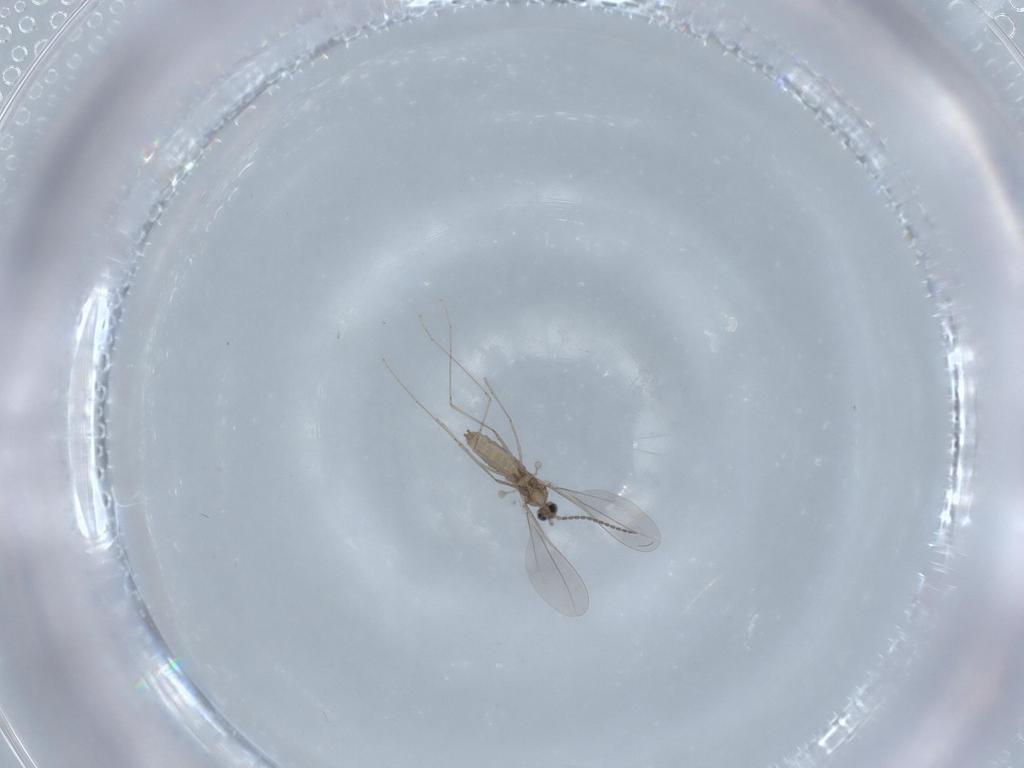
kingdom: Animalia
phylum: Arthropoda
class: Insecta
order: Diptera
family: Cecidomyiidae
